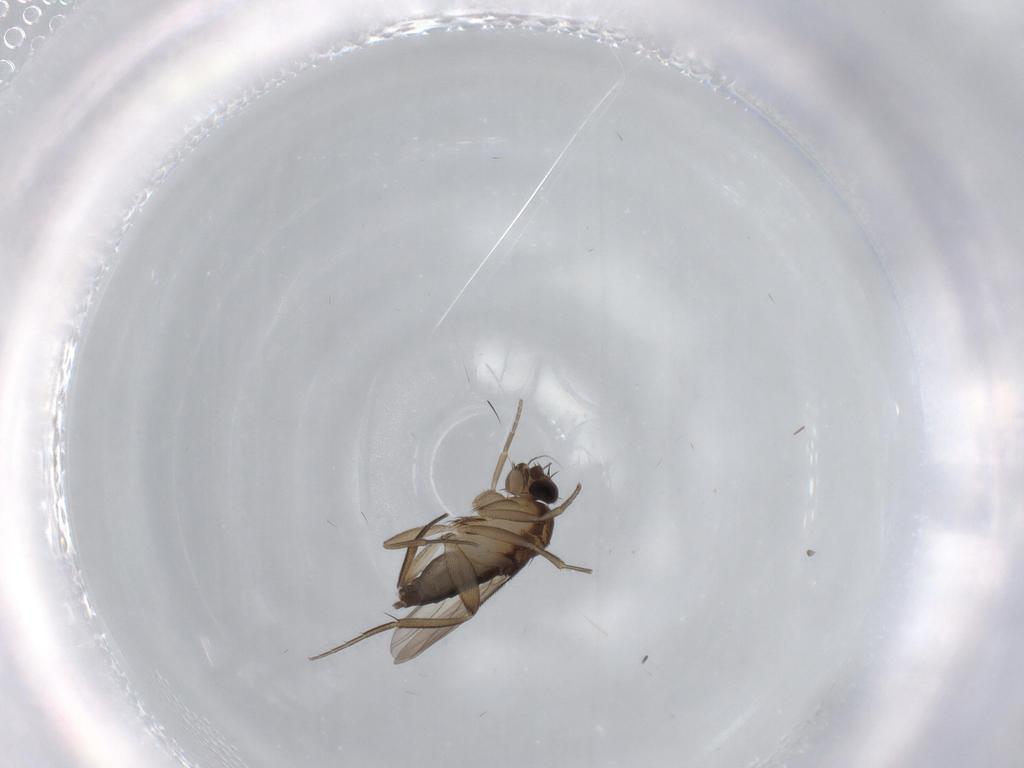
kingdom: Animalia
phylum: Arthropoda
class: Insecta
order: Diptera
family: Phoridae
